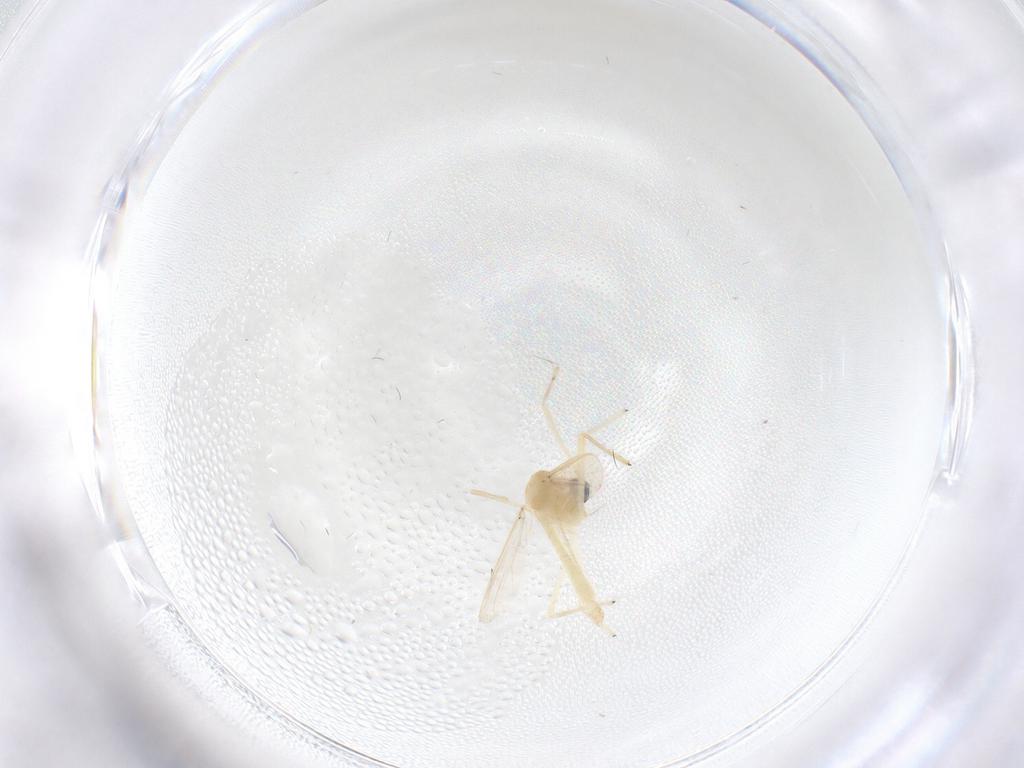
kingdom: Animalia
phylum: Arthropoda
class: Insecta
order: Diptera
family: Chironomidae
